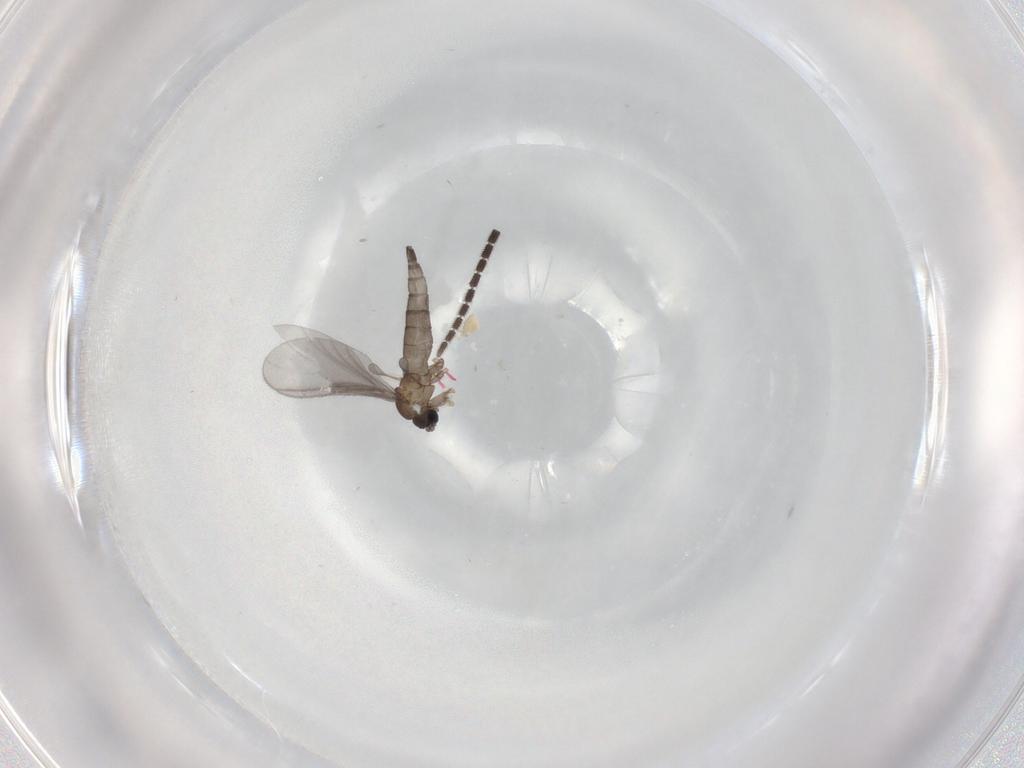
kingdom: Animalia
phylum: Arthropoda
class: Insecta
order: Diptera
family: Sciaridae
